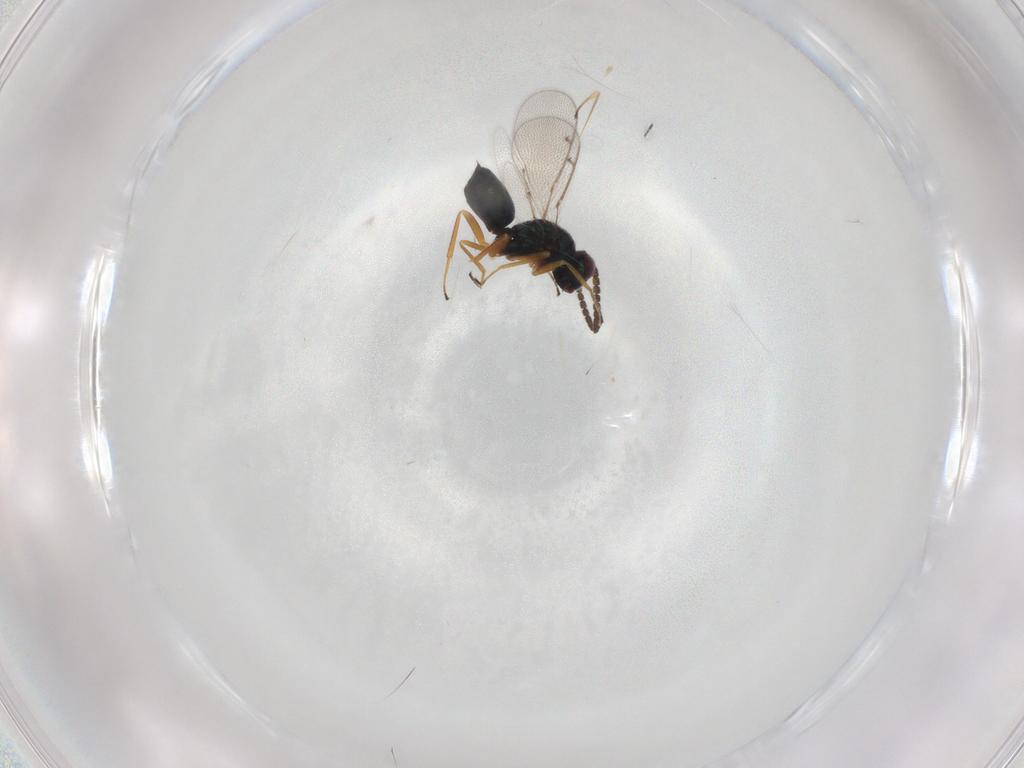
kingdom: Animalia
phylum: Arthropoda
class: Insecta
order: Hymenoptera
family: Scelionidae
